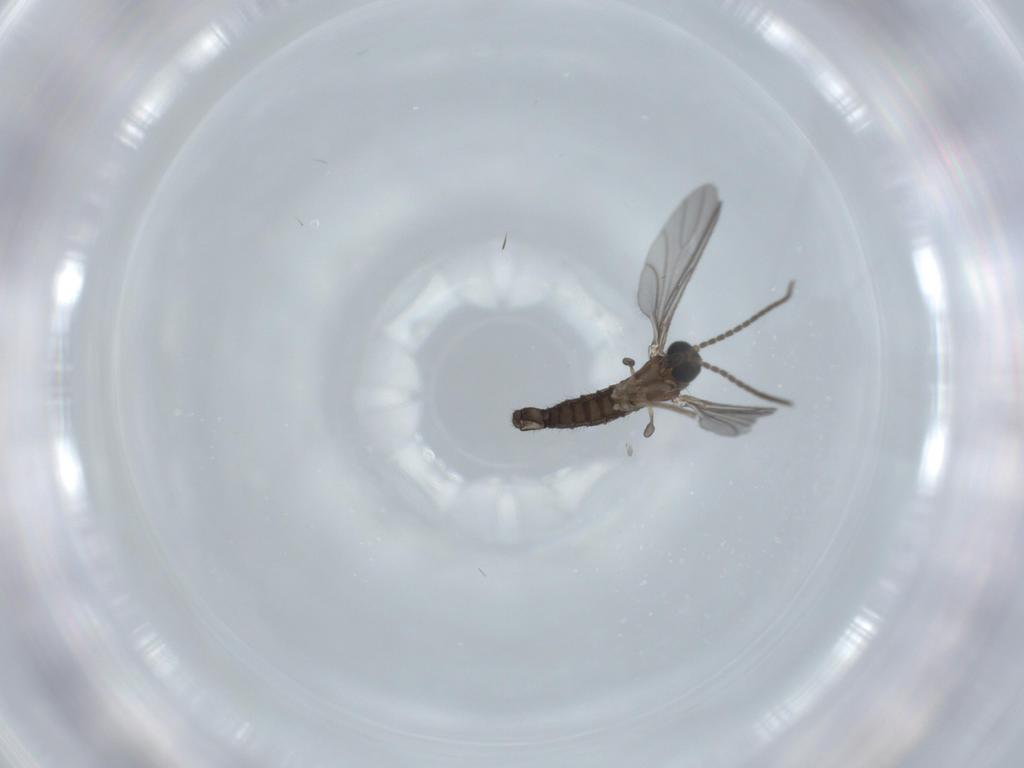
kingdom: Animalia
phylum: Arthropoda
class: Insecta
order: Diptera
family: Sciaridae
